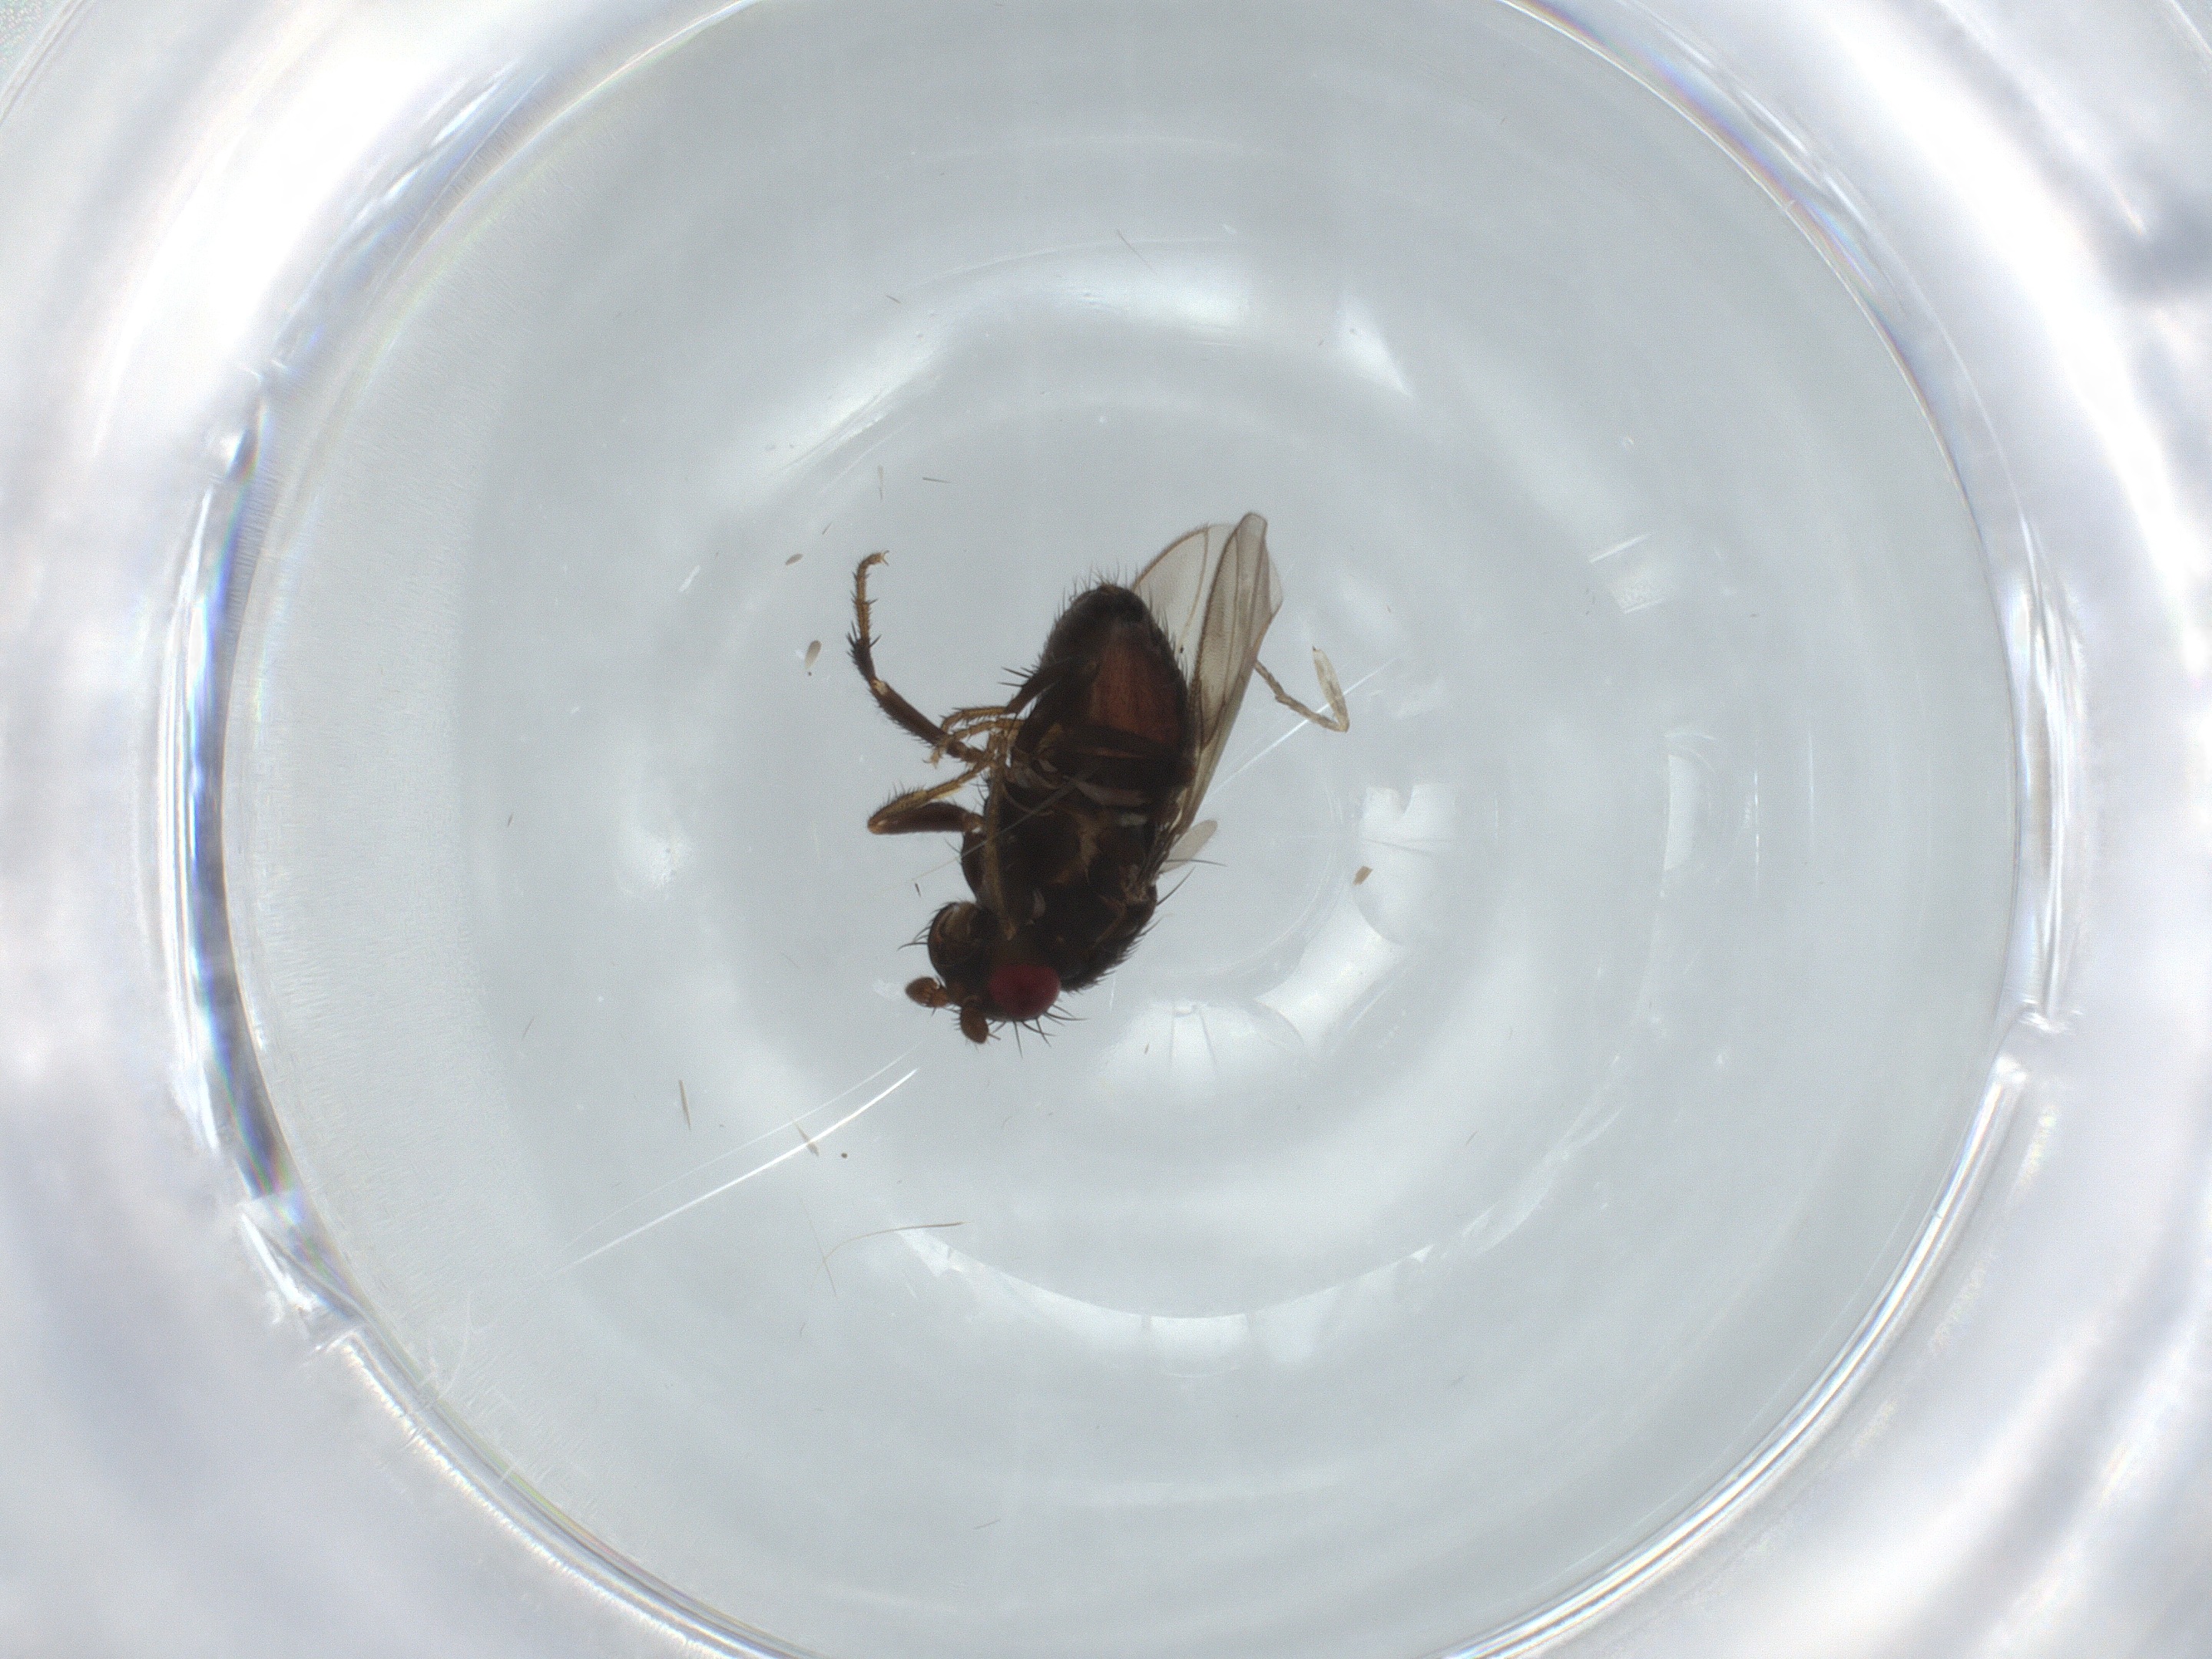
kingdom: Animalia
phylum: Arthropoda
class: Insecta
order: Diptera
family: Sphaeroceridae
